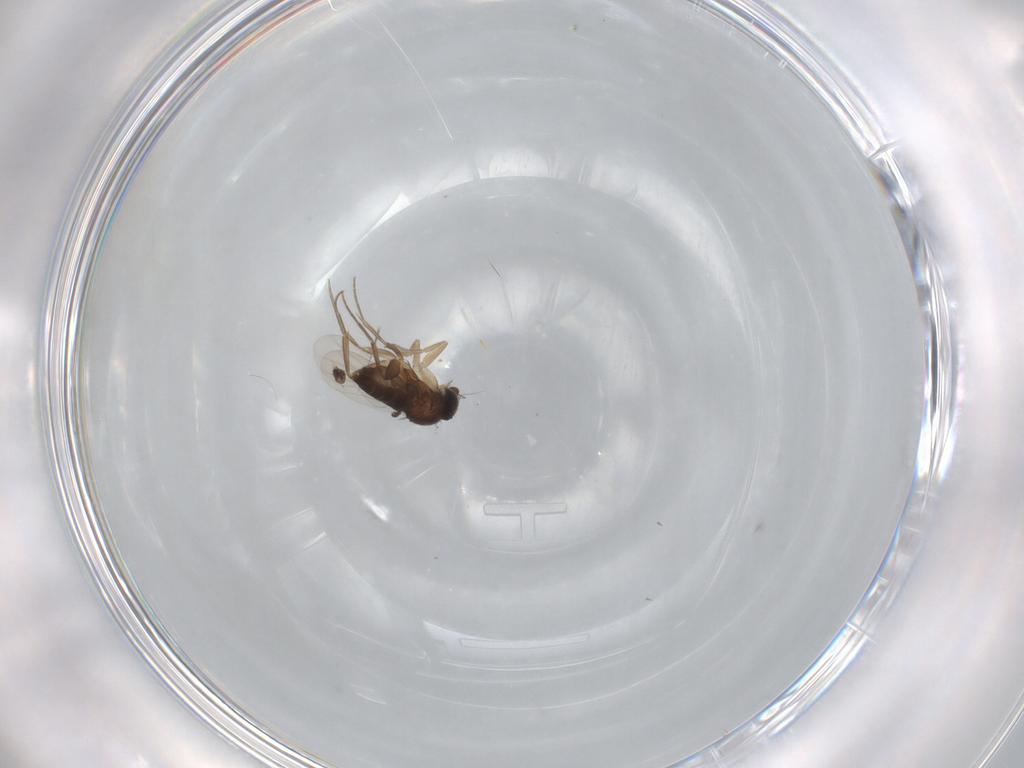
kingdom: Animalia
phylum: Arthropoda
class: Insecta
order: Diptera
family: Phoridae
